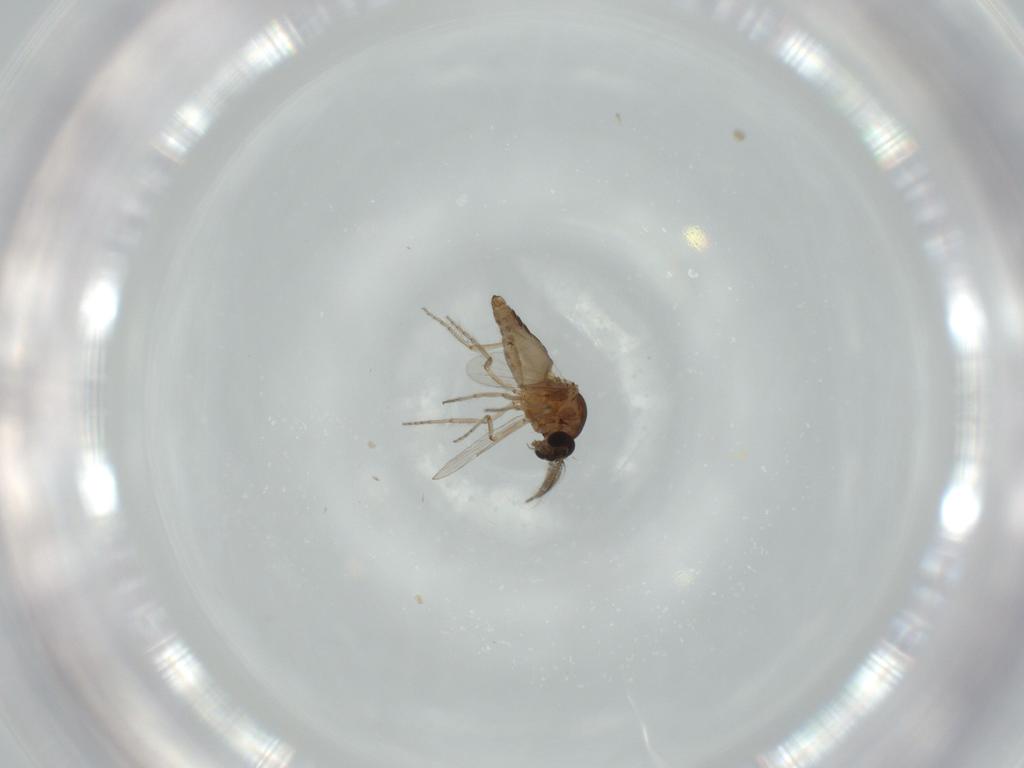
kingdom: Animalia
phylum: Arthropoda
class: Insecta
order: Diptera
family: Ceratopogonidae
